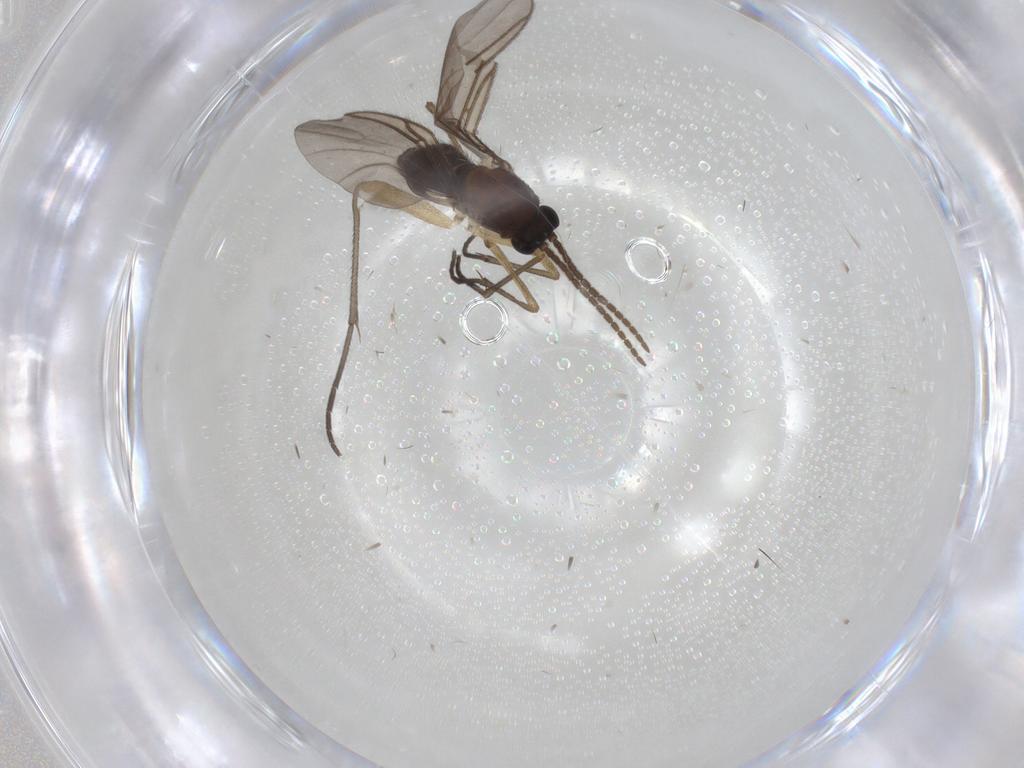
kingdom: Animalia
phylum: Arthropoda
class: Insecta
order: Diptera
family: Sciaridae
